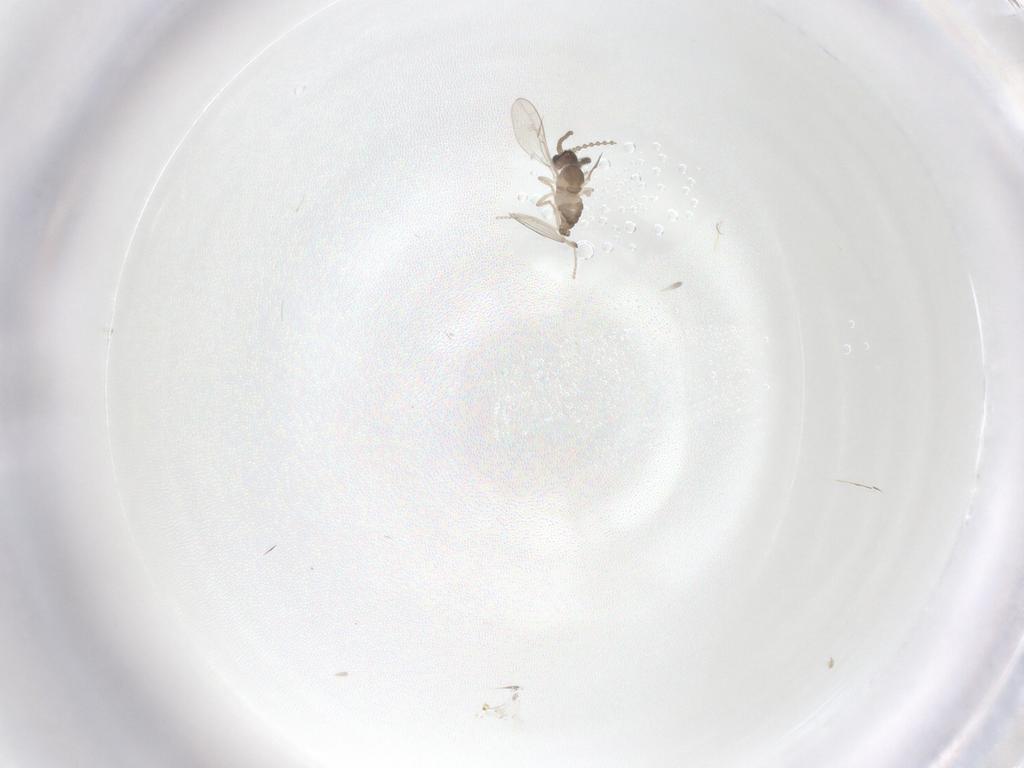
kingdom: Animalia
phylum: Arthropoda
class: Insecta
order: Diptera
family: Cecidomyiidae
